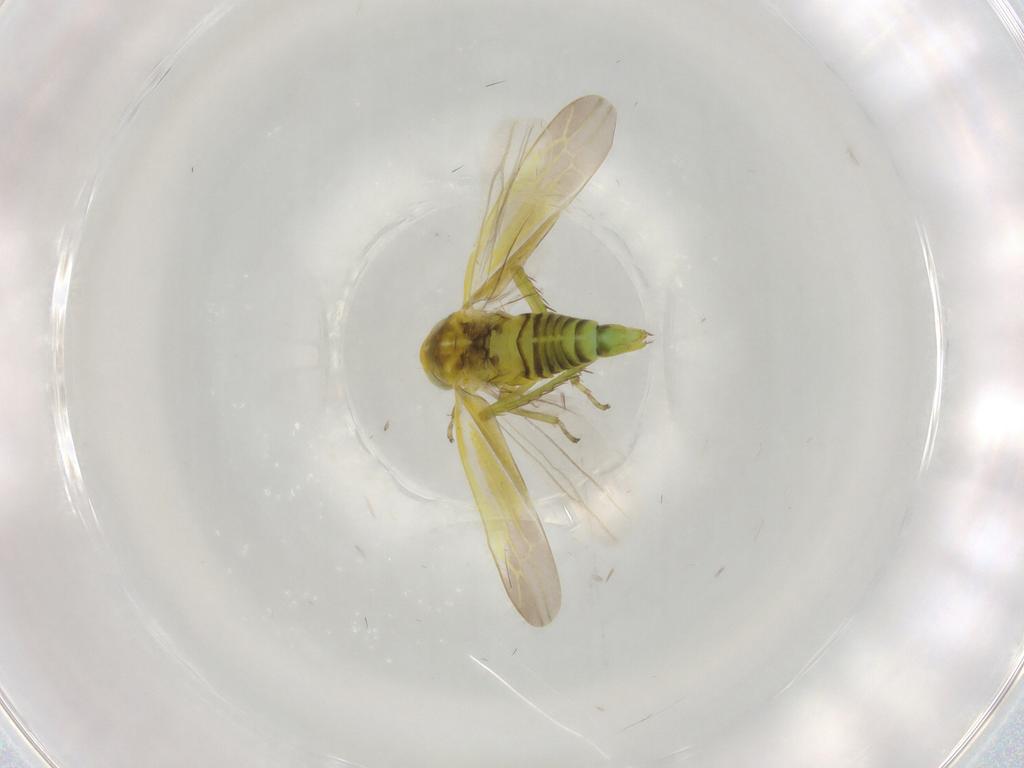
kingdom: Animalia
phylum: Arthropoda
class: Insecta
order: Hemiptera
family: Cicadellidae
